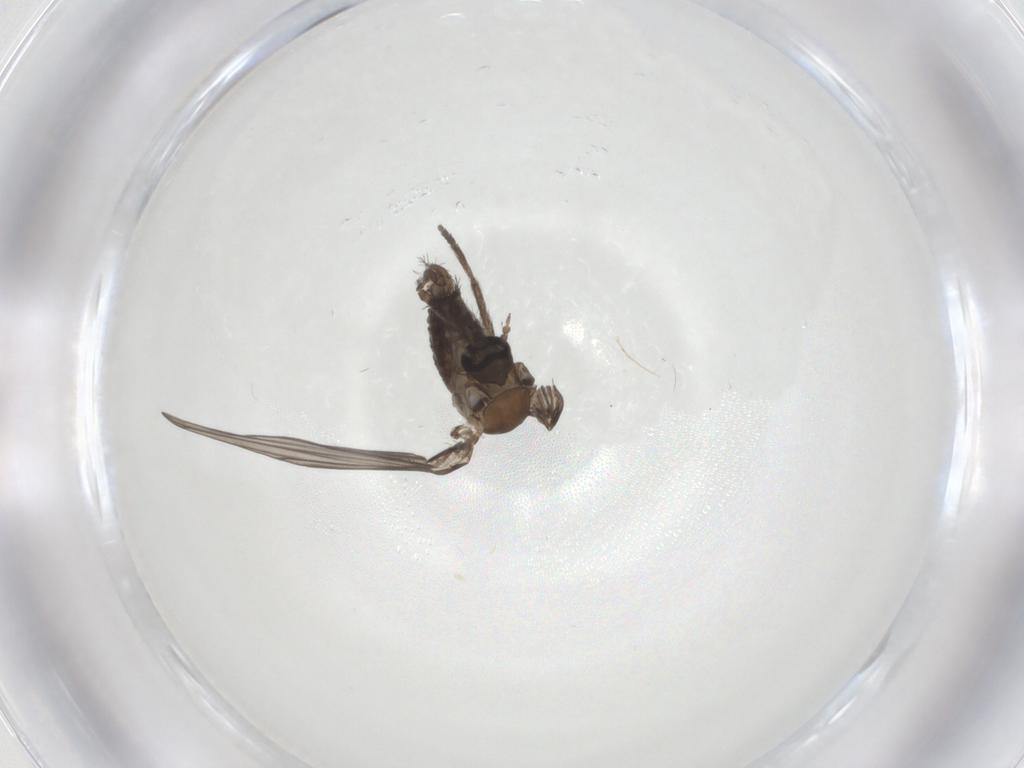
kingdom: Animalia
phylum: Arthropoda
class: Insecta
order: Diptera
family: Psychodidae
